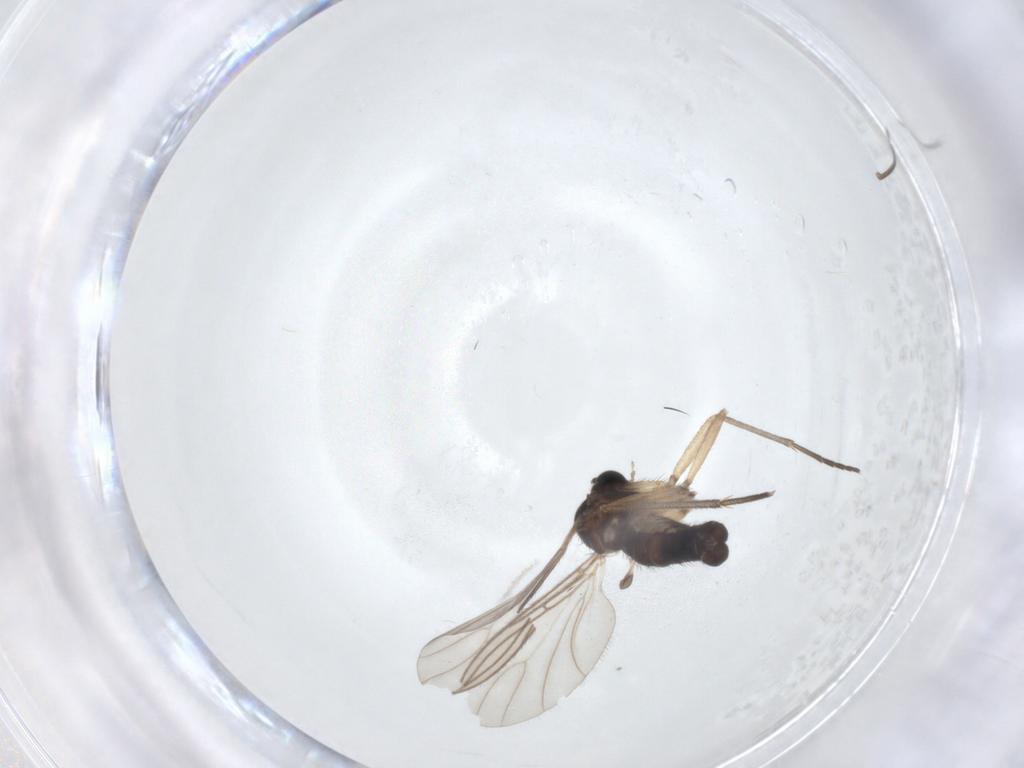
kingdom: Animalia
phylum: Arthropoda
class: Insecta
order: Diptera
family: Sciaridae
